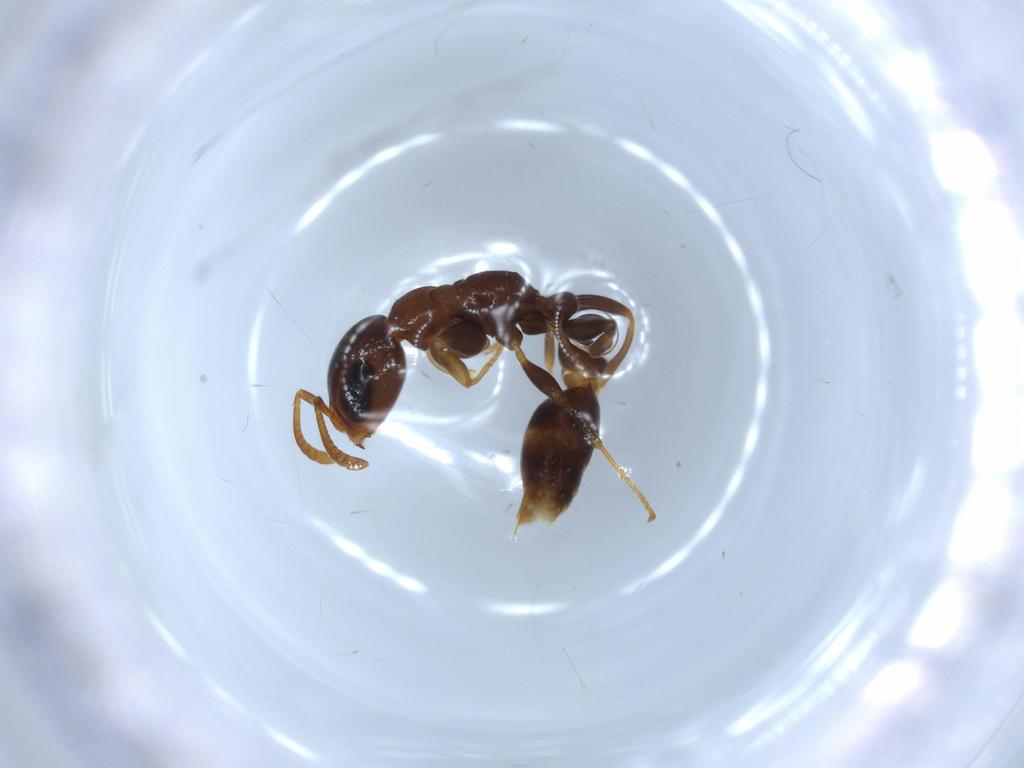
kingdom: Animalia
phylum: Arthropoda
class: Insecta
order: Hymenoptera
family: Formicidae
